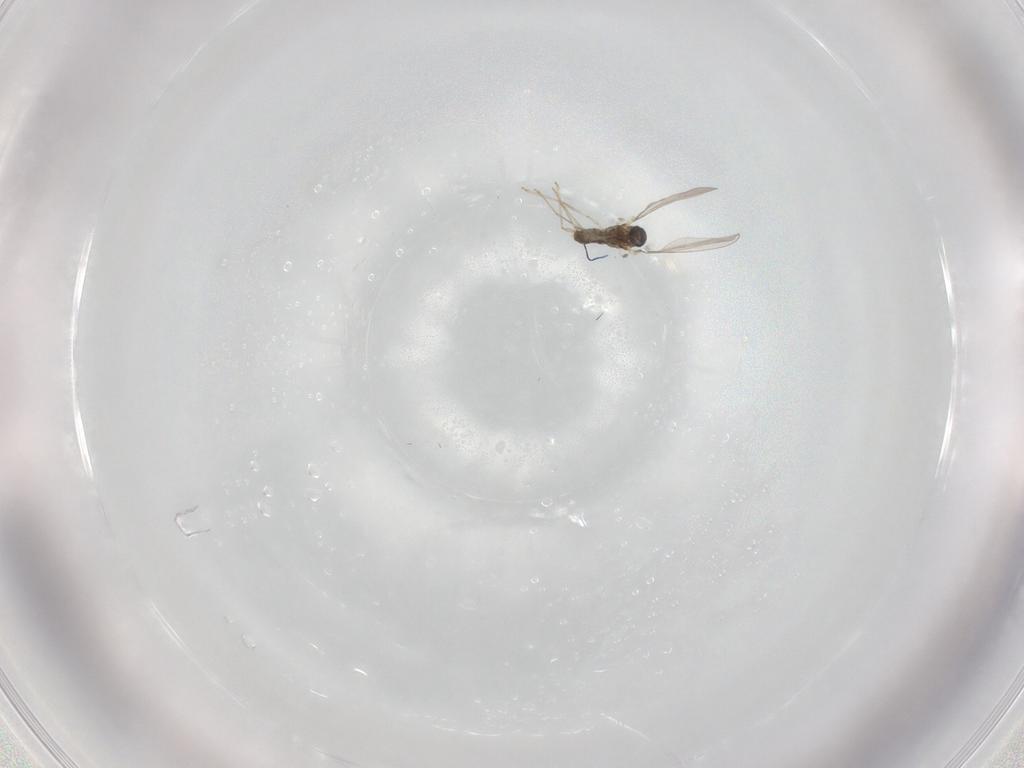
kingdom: Animalia
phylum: Arthropoda
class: Insecta
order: Diptera
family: Cecidomyiidae
